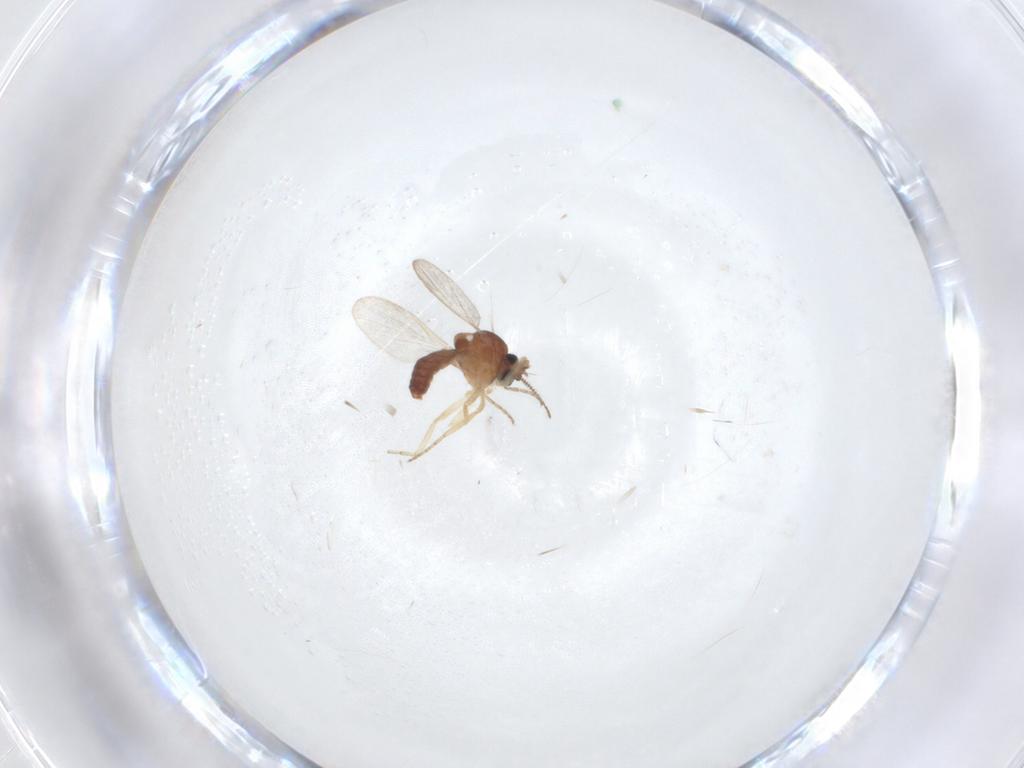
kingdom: Animalia
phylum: Arthropoda
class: Insecta
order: Diptera
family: Ceratopogonidae
